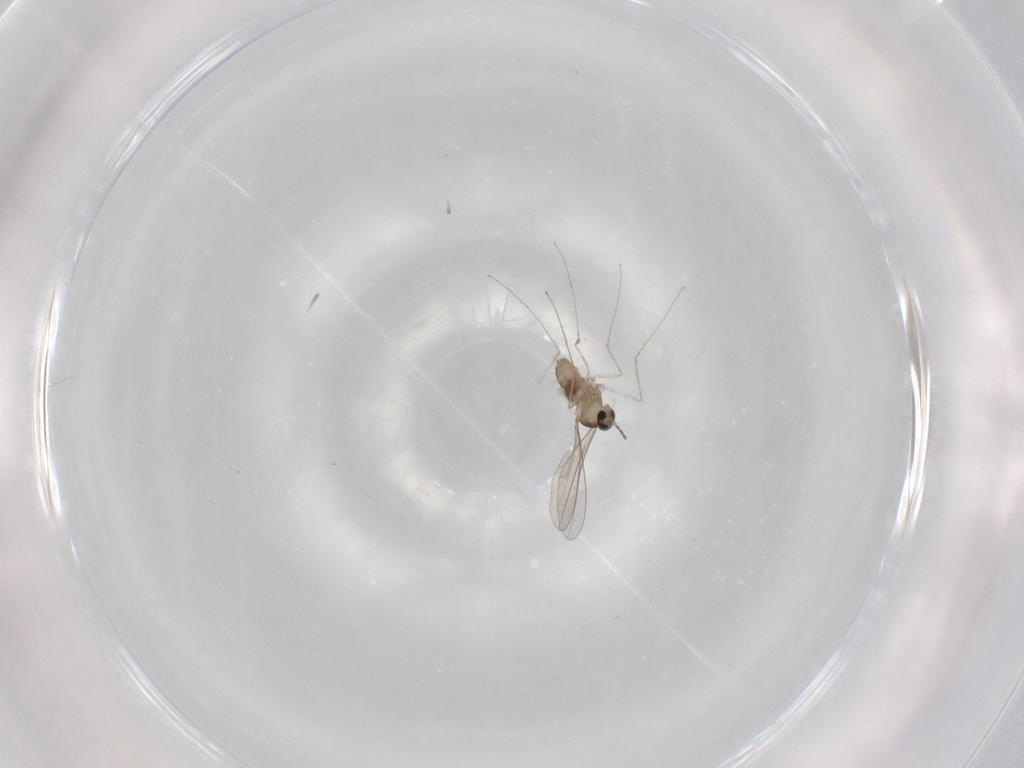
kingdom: Animalia
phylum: Arthropoda
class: Insecta
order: Diptera
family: Cecidomyiidae
